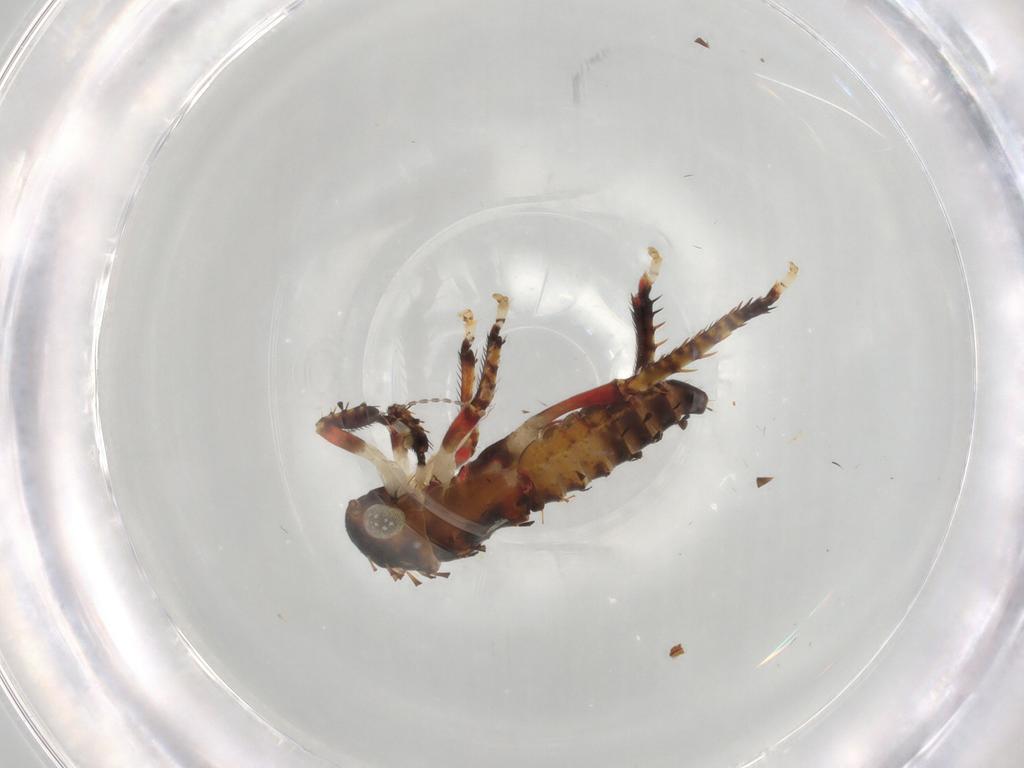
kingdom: Animalia
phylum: Arthropoda
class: Insecta
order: Hemiptera
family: Cicadellidae
